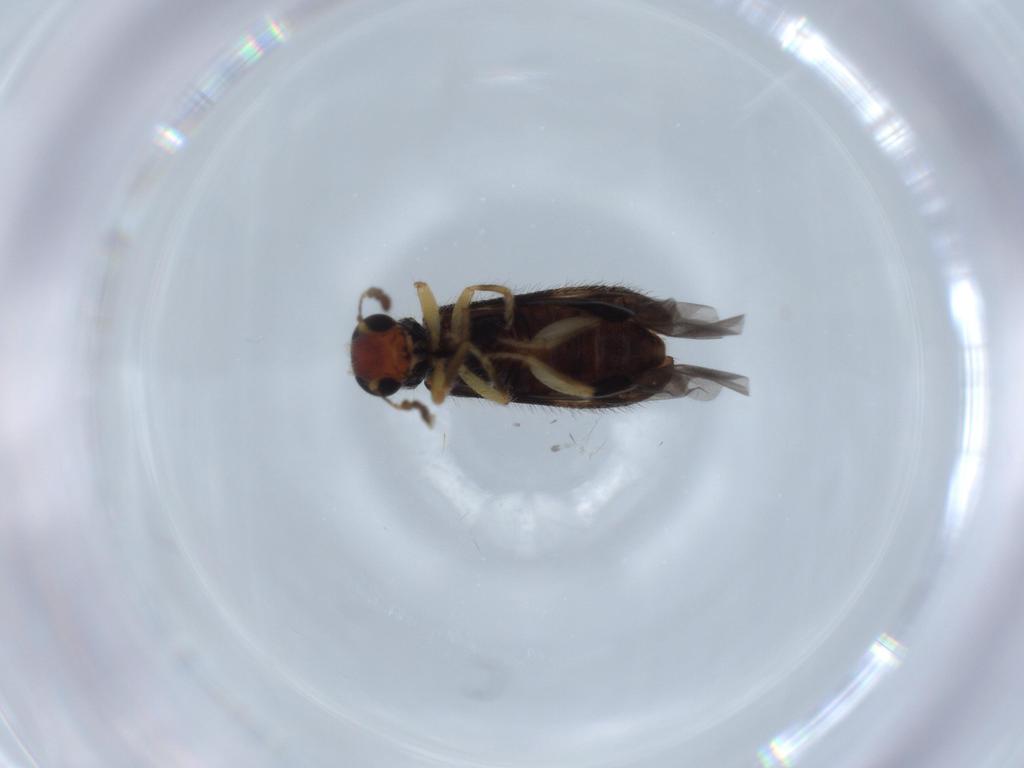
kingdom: Animalia
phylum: Arthropoda
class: Insecta
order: Coleoptera
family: Cleridae
